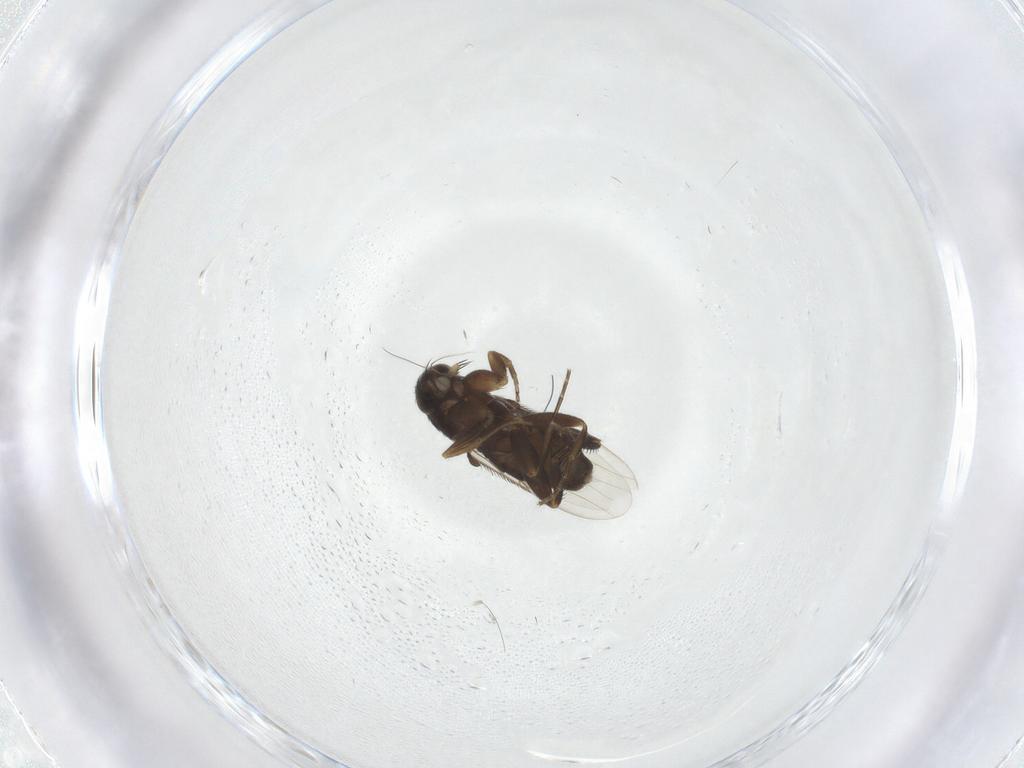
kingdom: Animalia
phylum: Arthropoda
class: Insecta
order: Diptera
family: Phoridae
